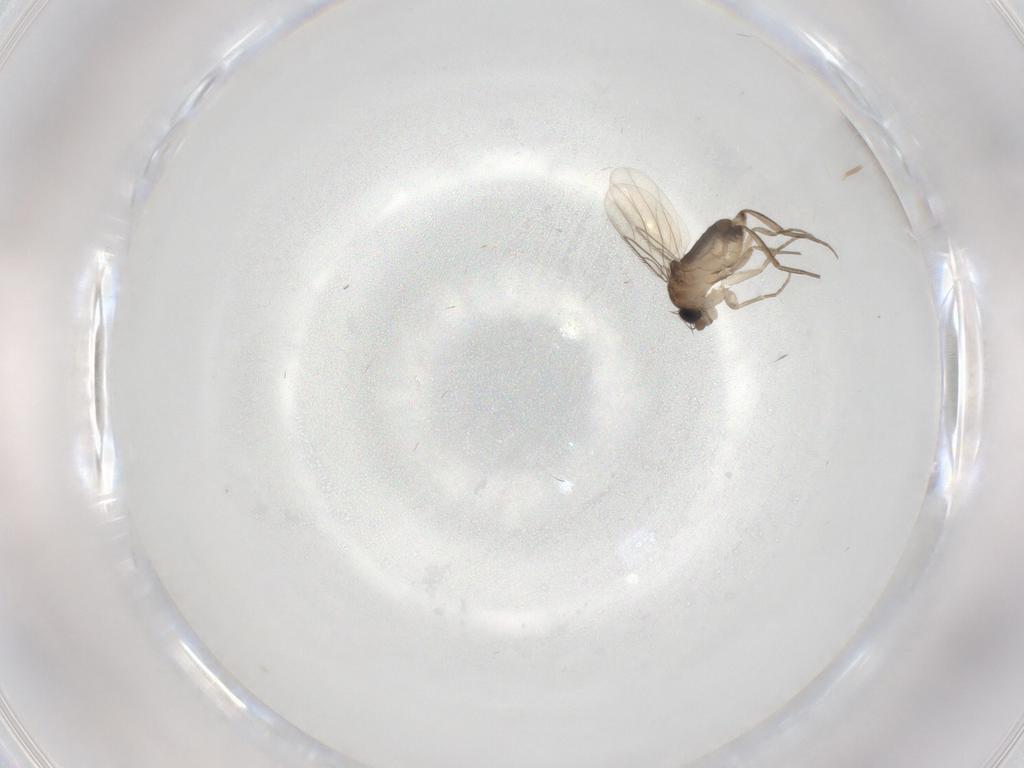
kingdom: Animalia
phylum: Arthropoda
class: Insecta
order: Diptera
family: Phoridae
